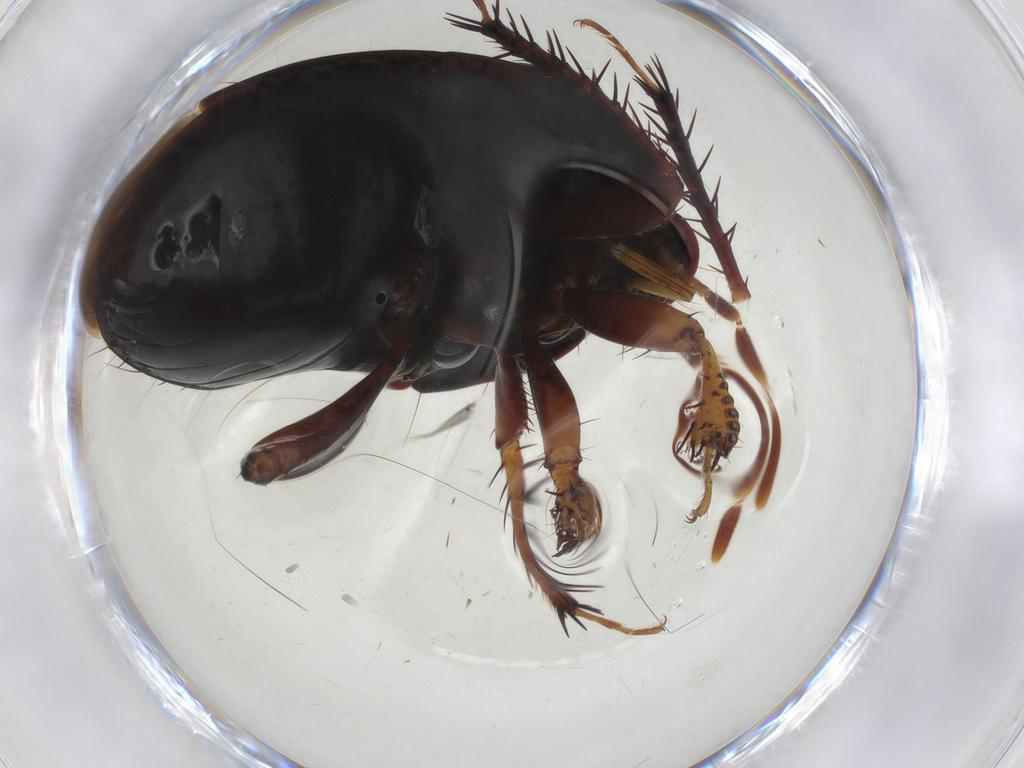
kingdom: Animalia
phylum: Arthropoda
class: Insecta
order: Hemiptera
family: Cydnidae
